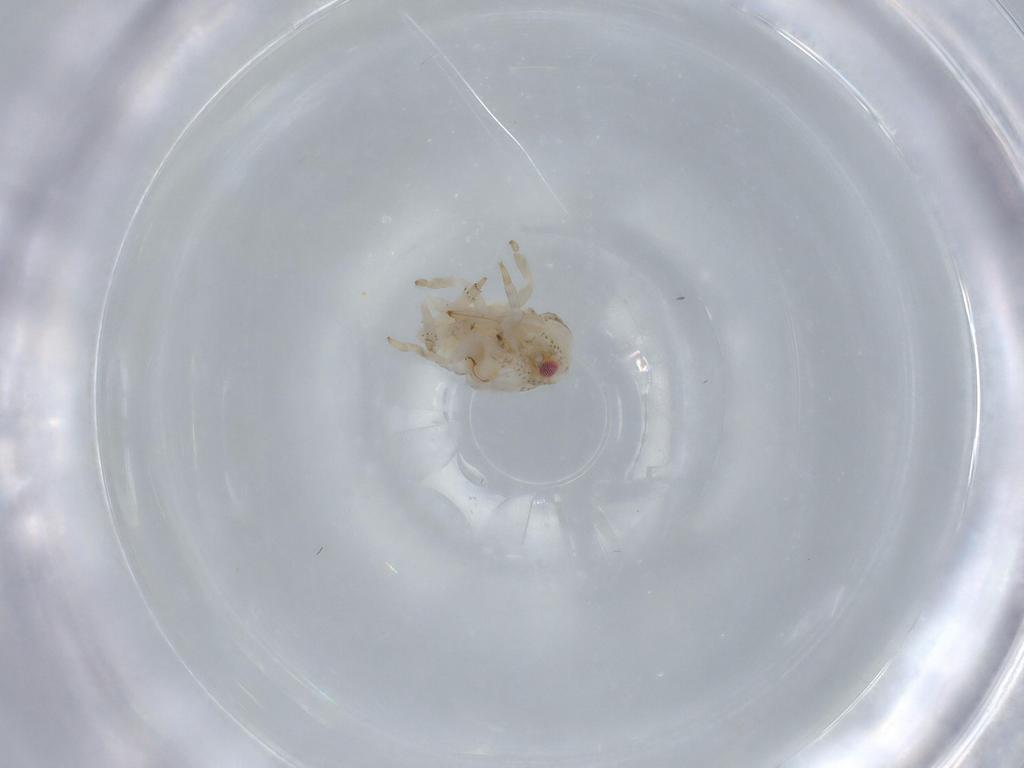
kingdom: Animalia
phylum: Arthropoda
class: Insecta
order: Hemiptera
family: Acanaloniidae
